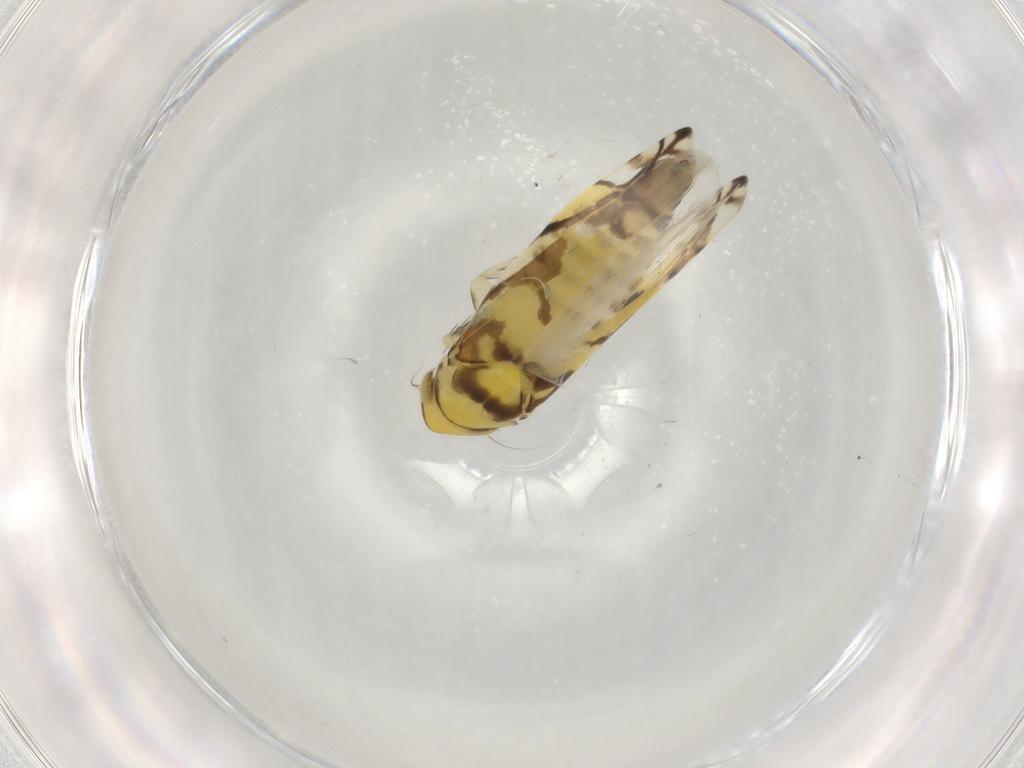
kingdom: Animalia
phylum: Arthropoda
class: Insecta
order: Hemiptera
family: Cicadellidae
